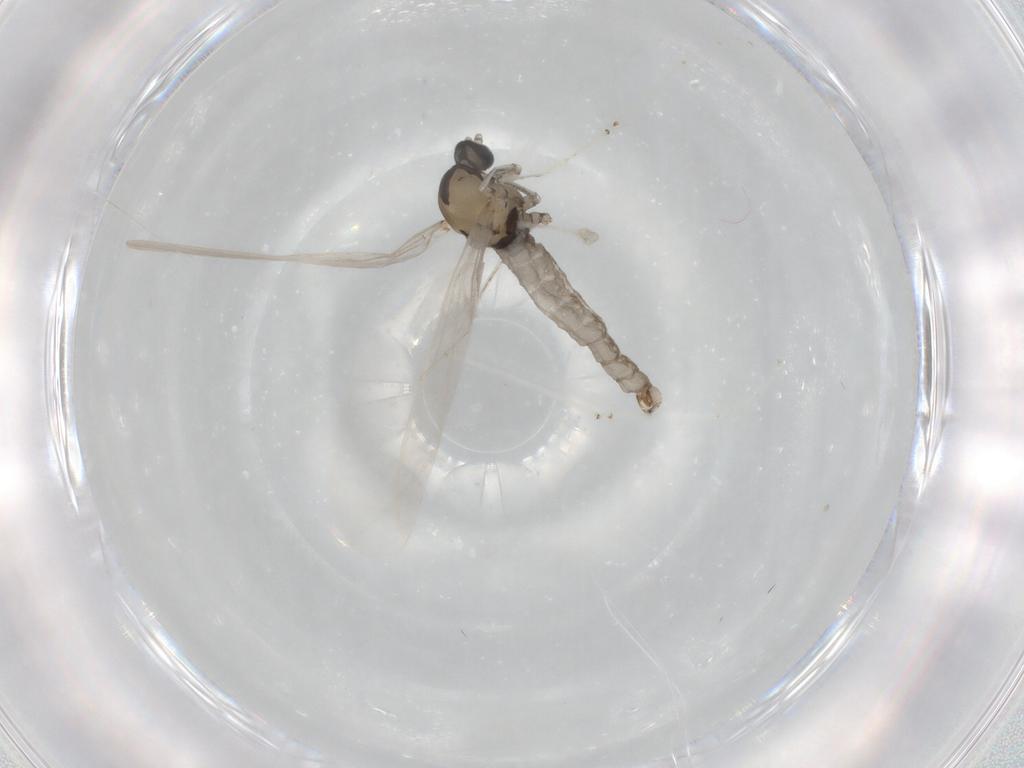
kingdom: Animalia
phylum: Arthropoda
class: Insecta
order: Diptera
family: Cecidomyiidae
